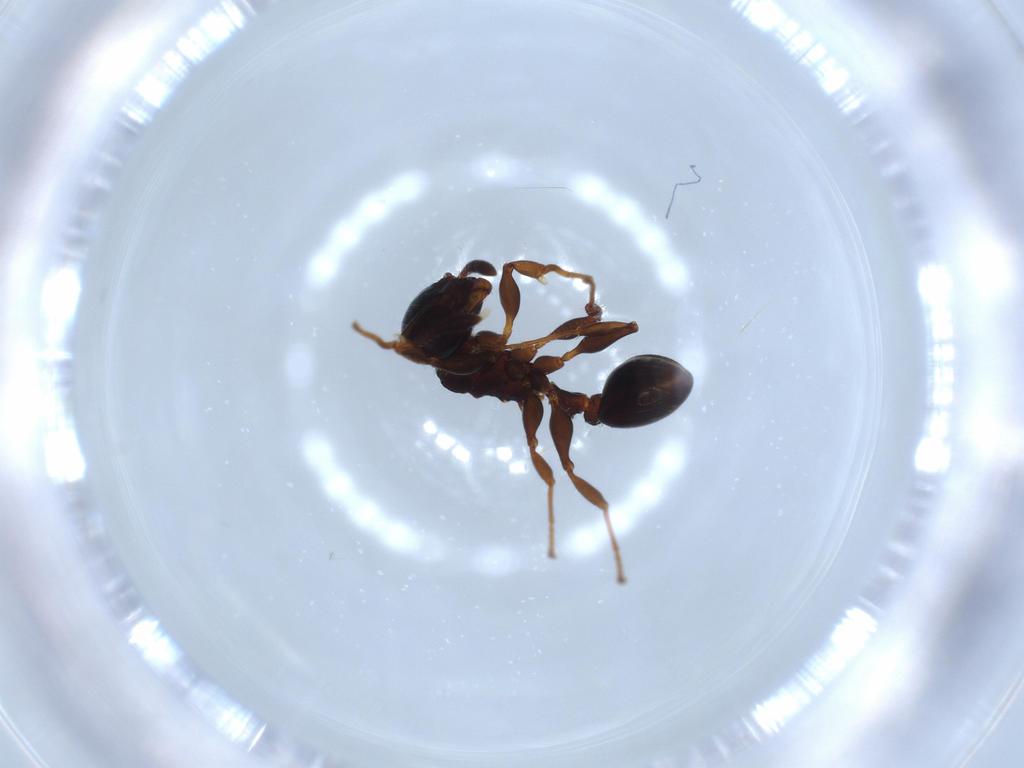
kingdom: Animalia
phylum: Arthropoda
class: Insecta
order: Hymenoptera
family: Formicidae
